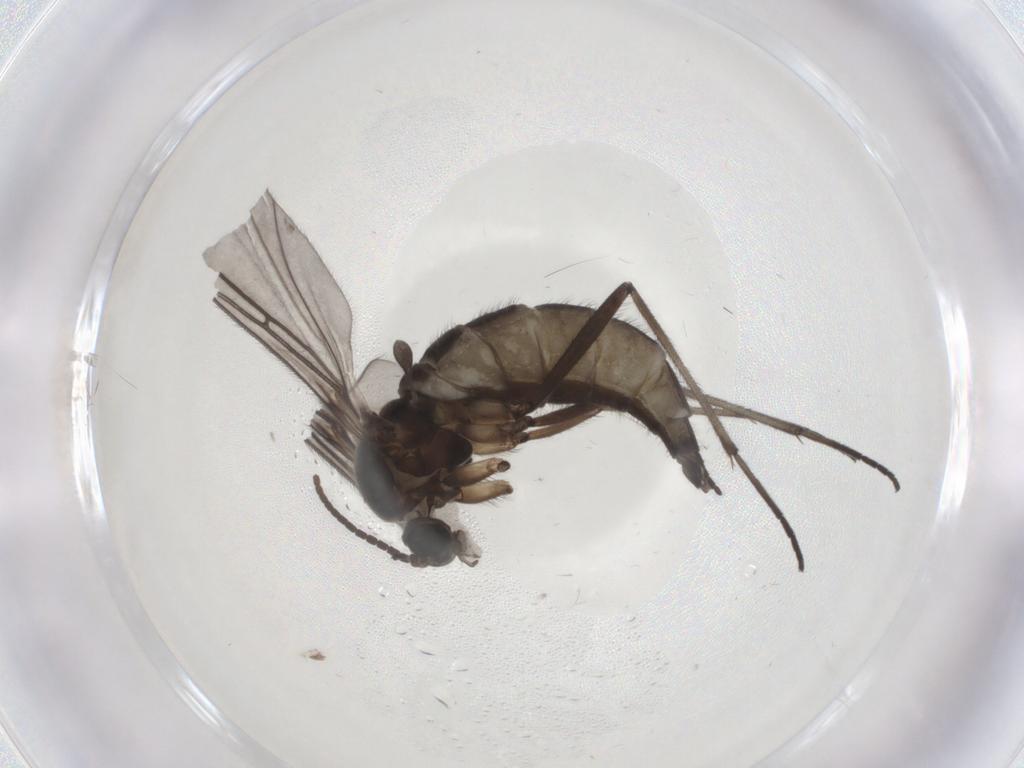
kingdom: Animalia
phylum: Arthropoda
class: Insecta
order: Diptera
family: Sciaridae
